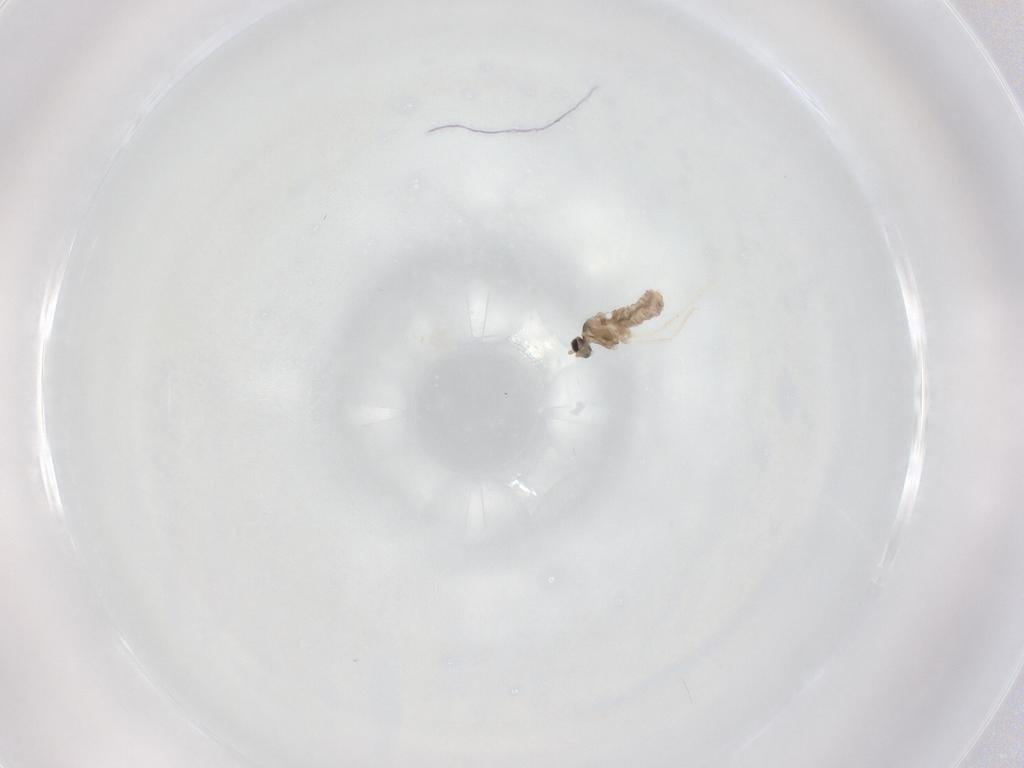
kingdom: Animalia
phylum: Arthropoda
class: Insecta
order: Diptera
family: Cecidomyiidae
